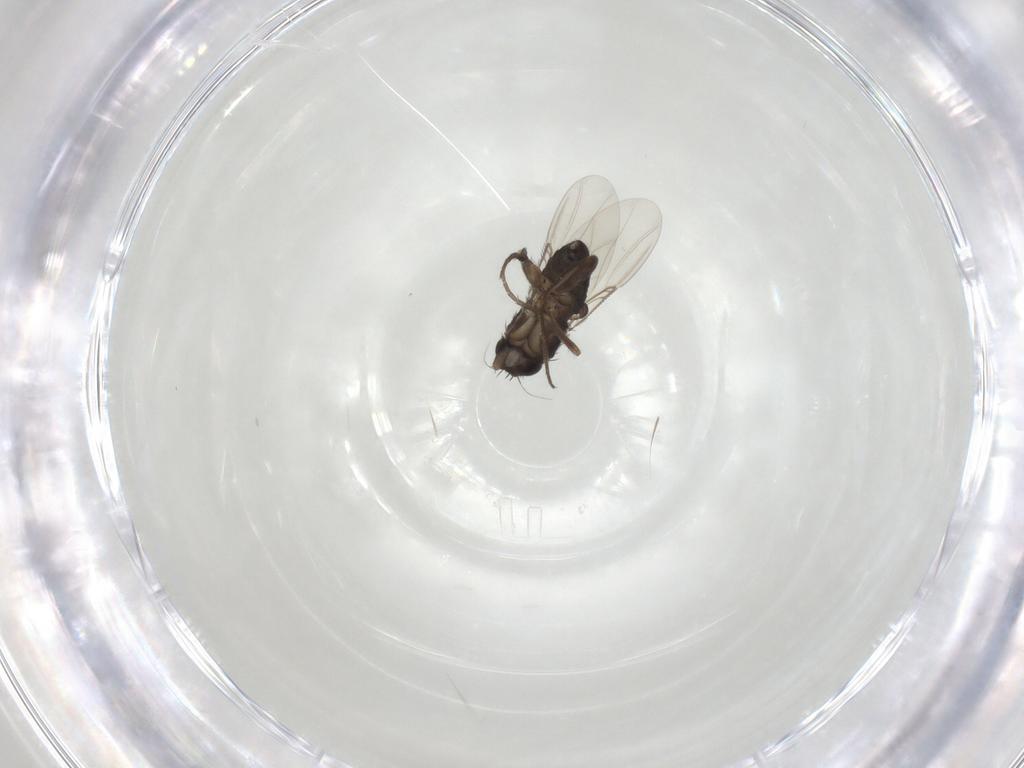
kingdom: Animalia
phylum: Arthropoda
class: Insecta
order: Diptera
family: Phoridae
